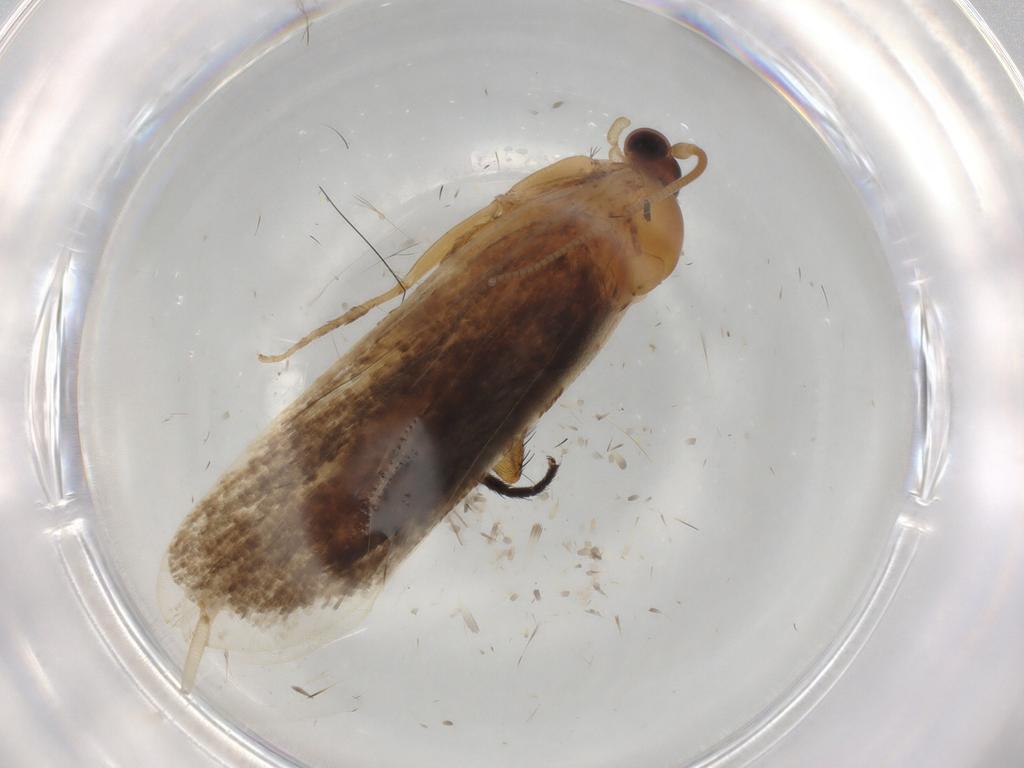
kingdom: Animalia
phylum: Arthropoda
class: Insecta
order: Lepidoptera
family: Nepticulidae
